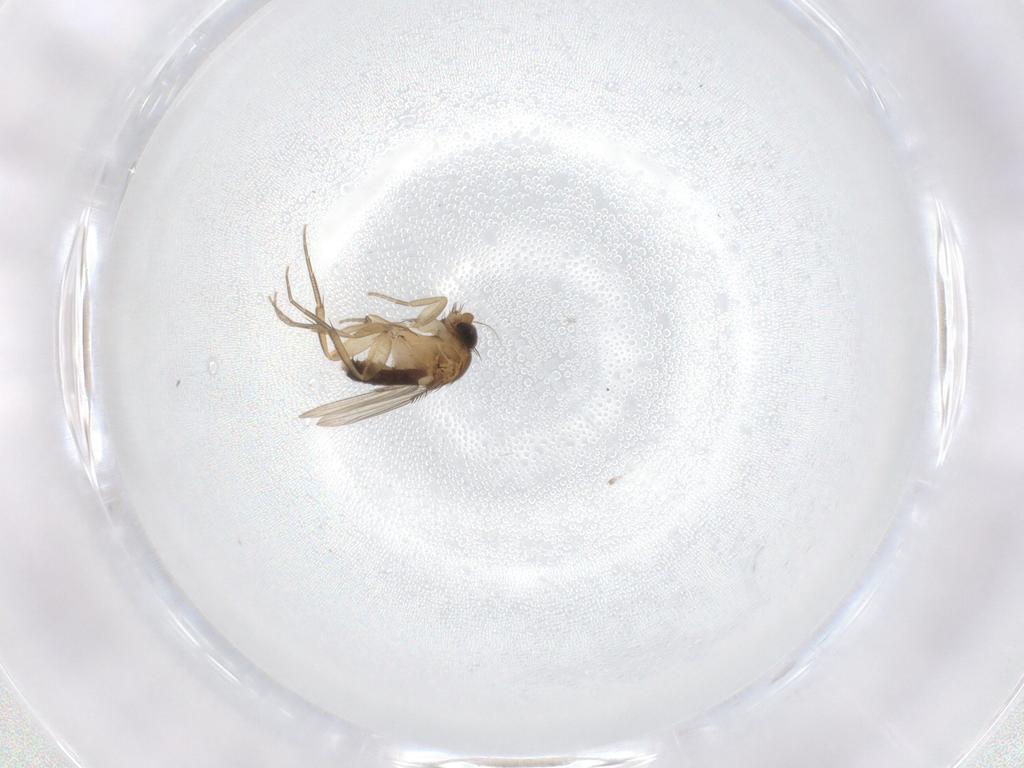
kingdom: Animalia
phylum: Arthropoda
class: Insecta
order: Diptera
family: Phoridae
